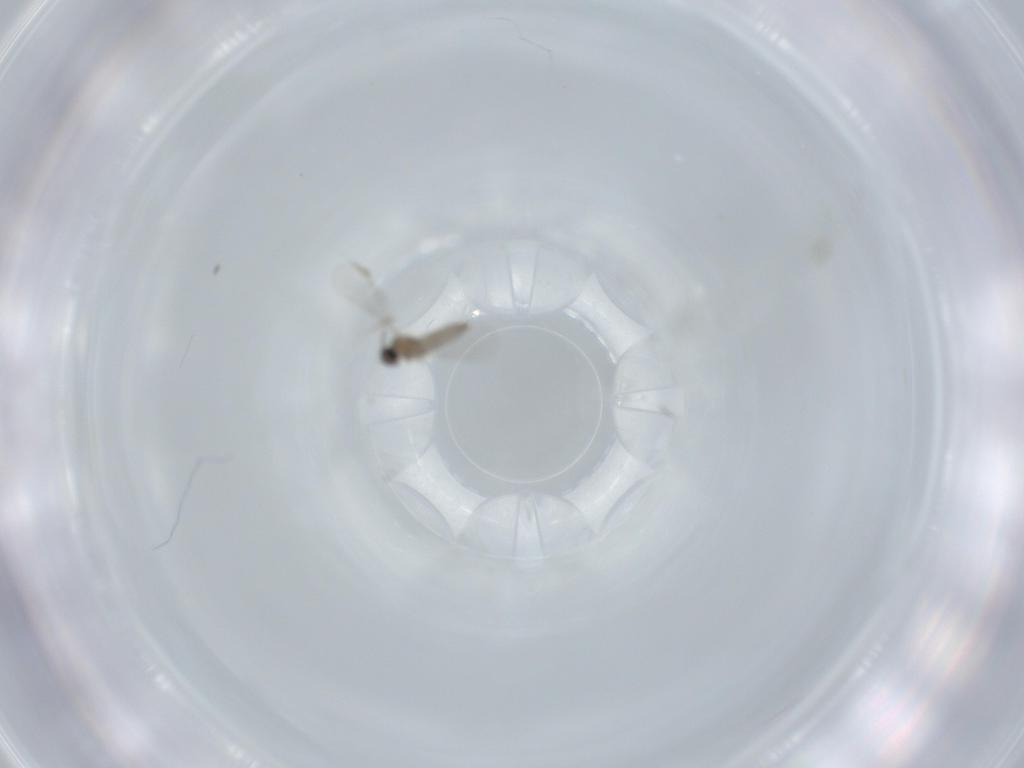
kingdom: Animalia
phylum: Arthropoda
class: Insecta
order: Diptera
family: Cecidomyiidae
